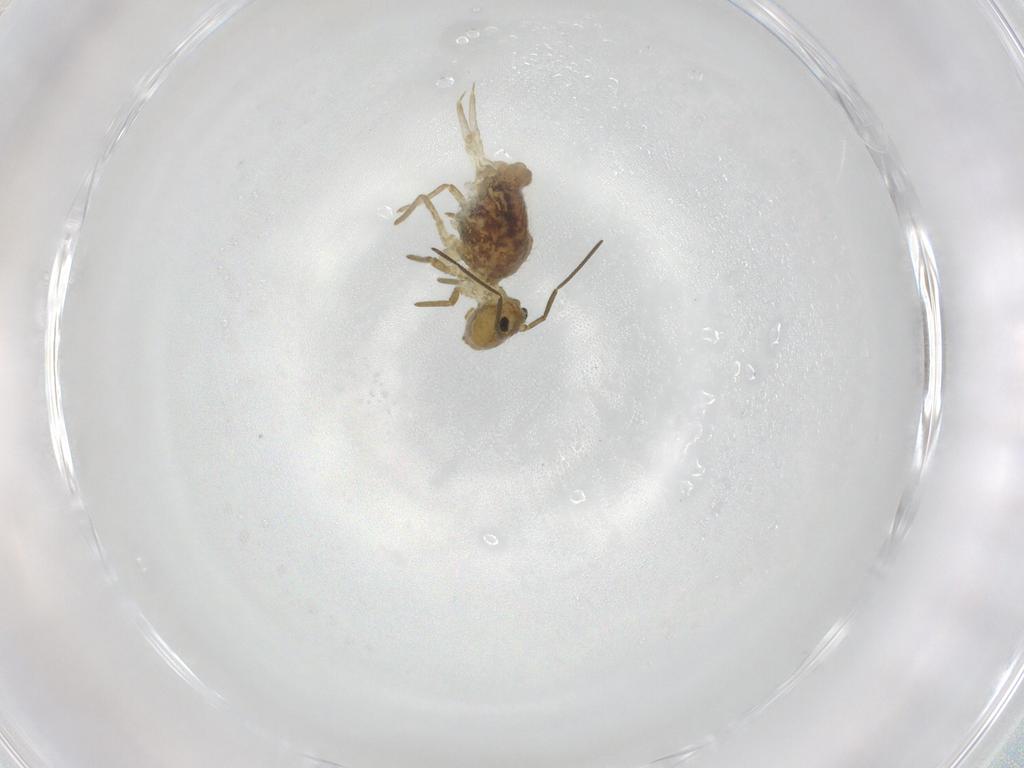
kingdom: Animalia
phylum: Arthropoda
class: Collembola
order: Symphypleona
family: Sminthuridae
